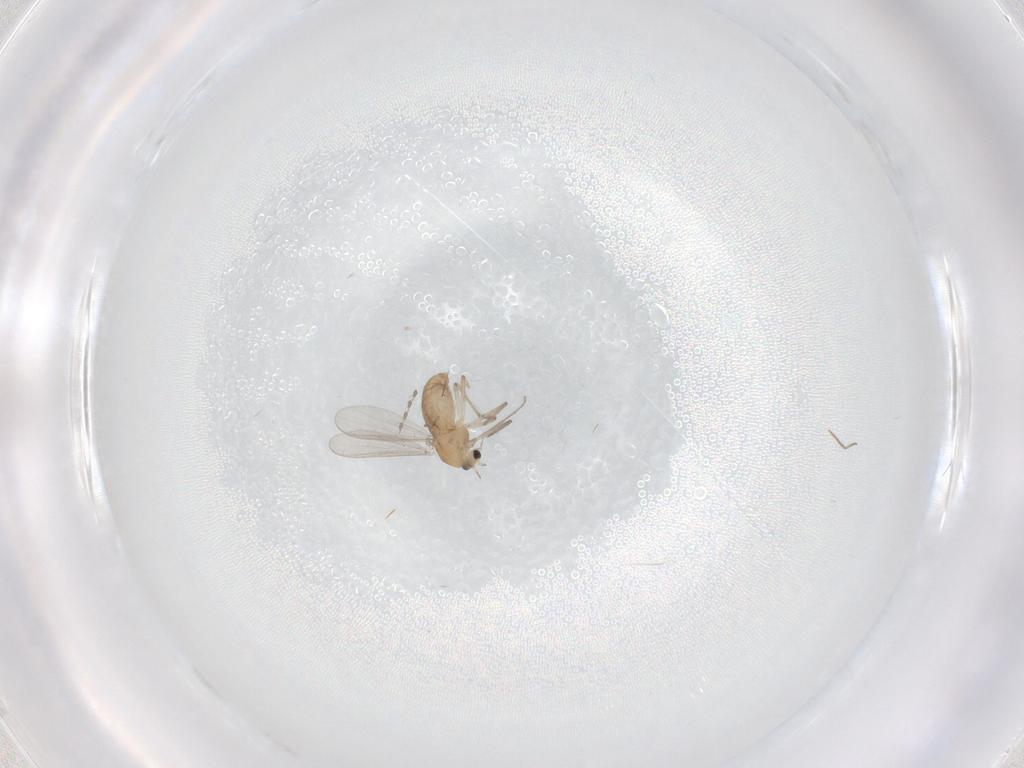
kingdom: Animalia
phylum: Arthropoda
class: Insecta
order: Diptera
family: Chironomidae
